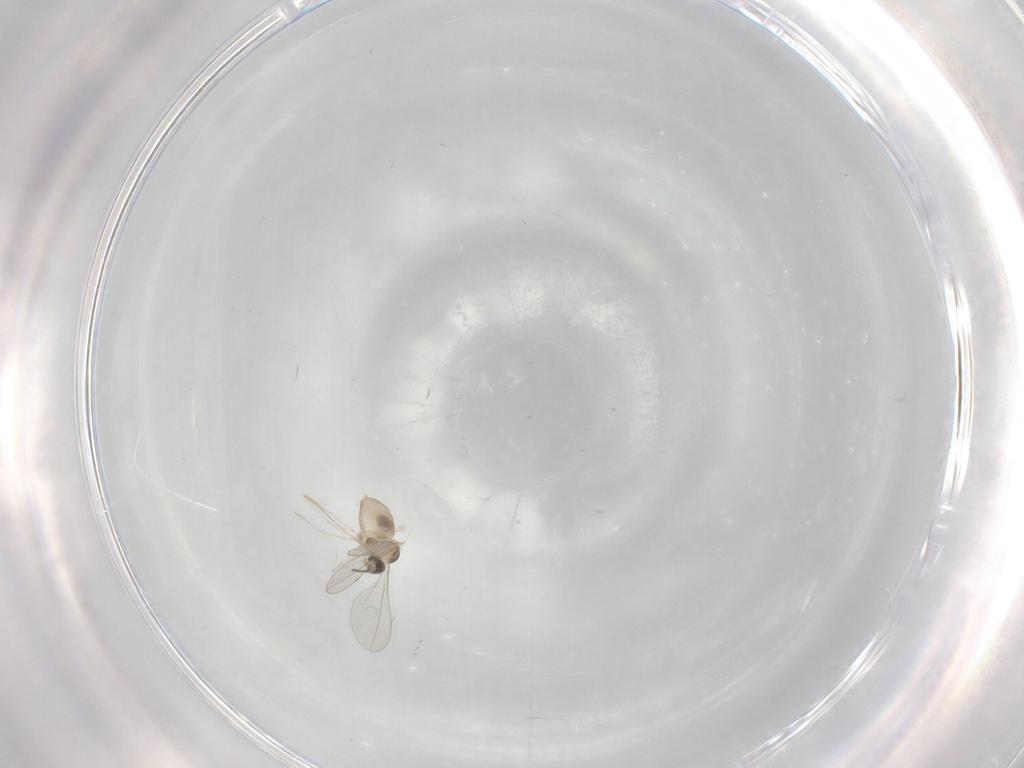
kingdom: Animalia
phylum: Arthropoda
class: Insecta
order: Diptera
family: Cecidomyiidae
